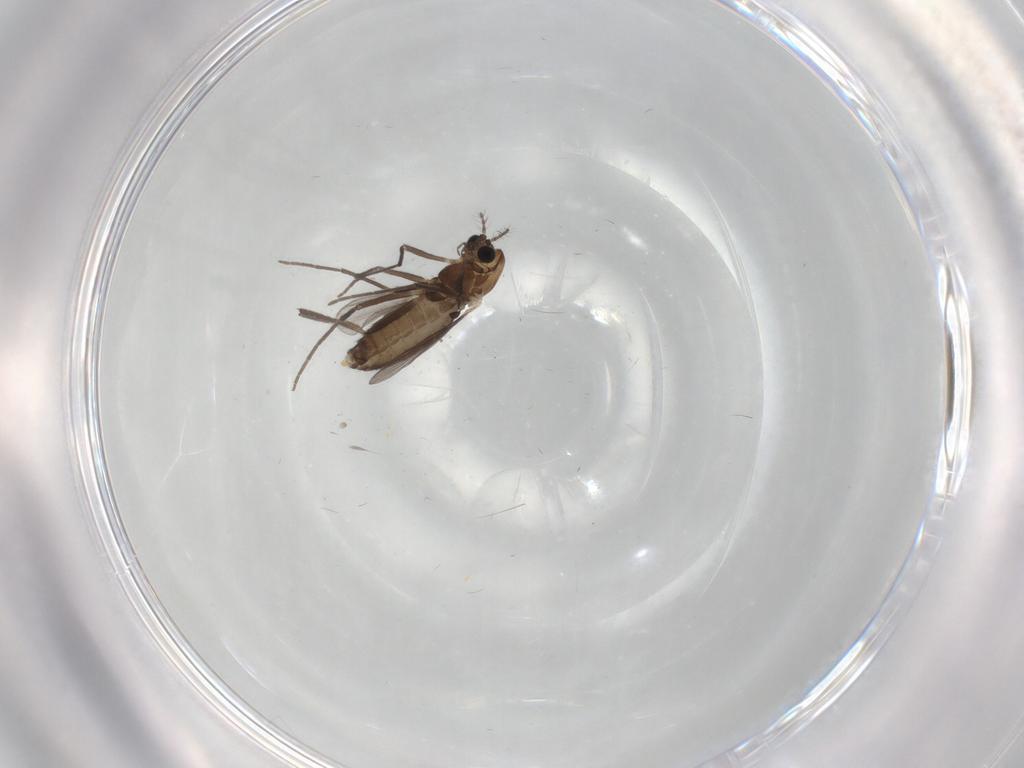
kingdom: Animalia
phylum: Arthropoda
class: Insecta
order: Diptera
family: Chironomidae
